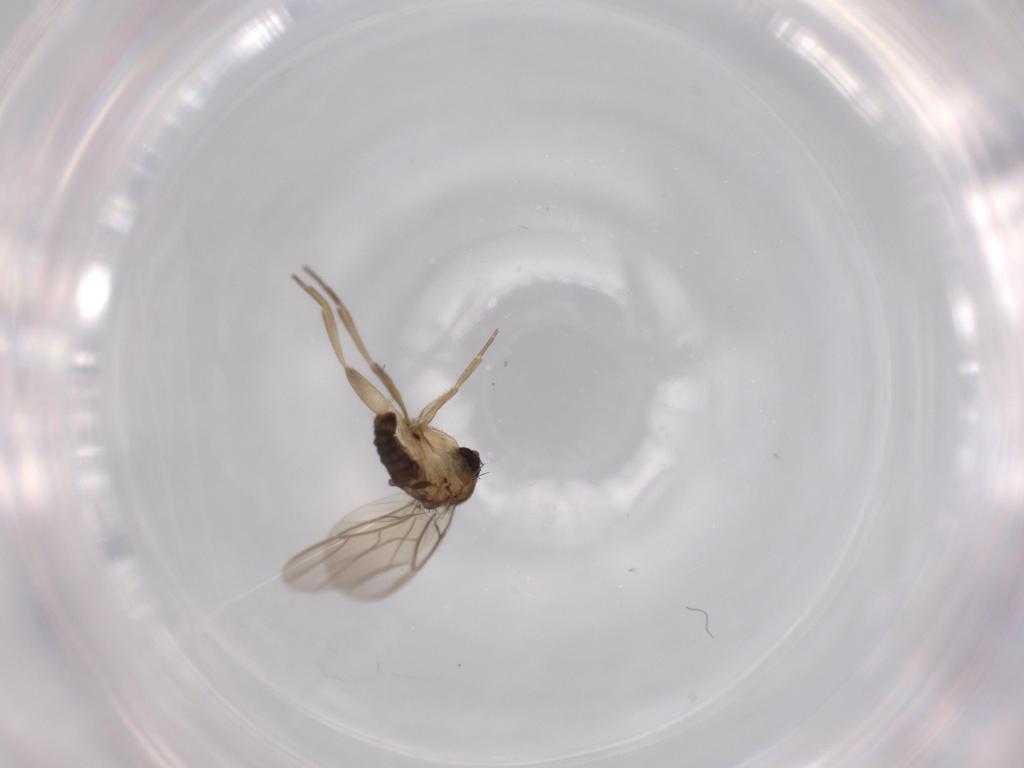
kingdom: Animalia
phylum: Arthropoda
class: Insecta
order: Diptera
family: Phoridae
